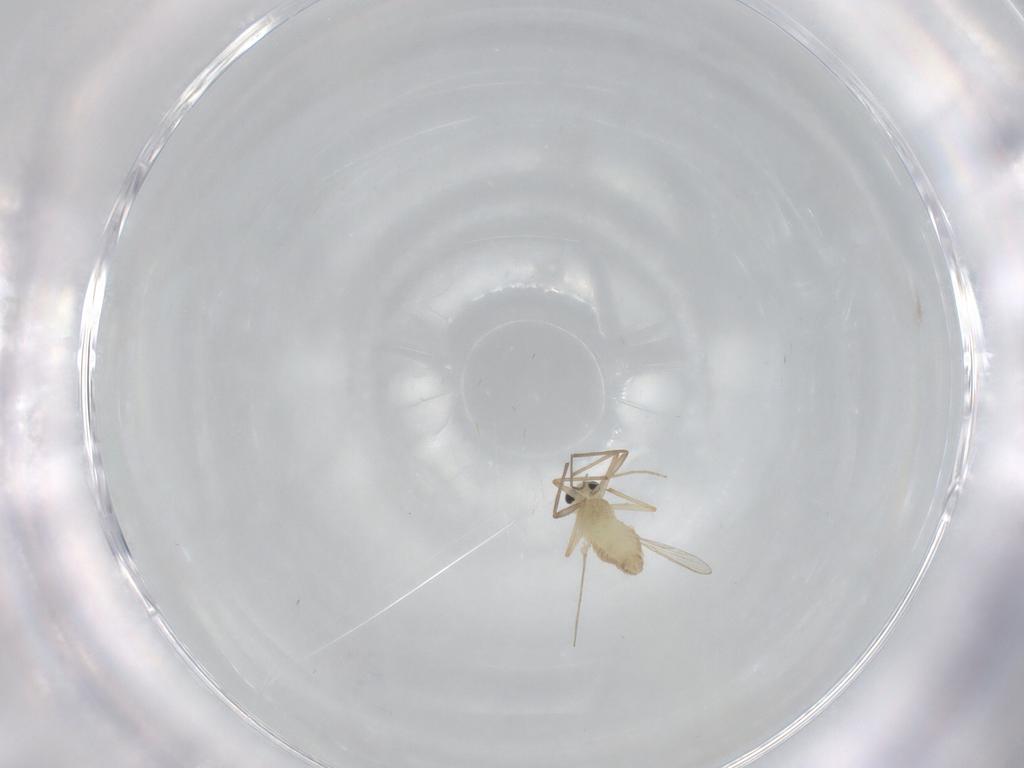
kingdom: Animalia
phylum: Arthropoda
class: Insecta
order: Diptera
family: Chironomidae
